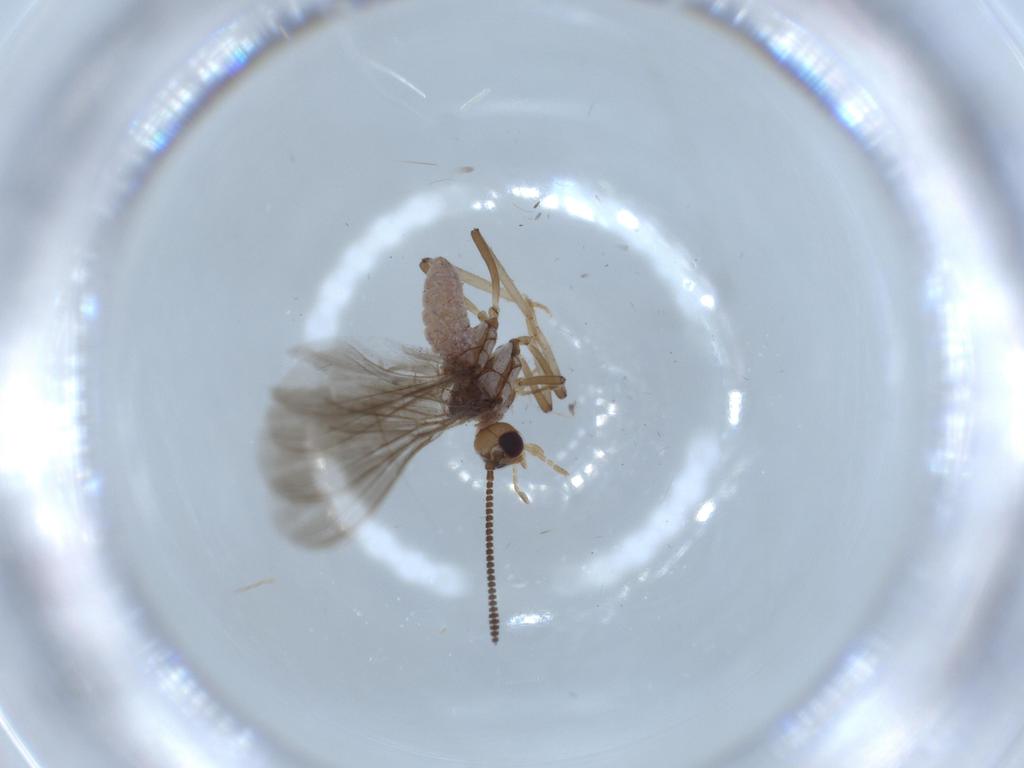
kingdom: Animalia
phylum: Arthropoda
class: Insecta
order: Neuroptera
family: Coniopterygidae
